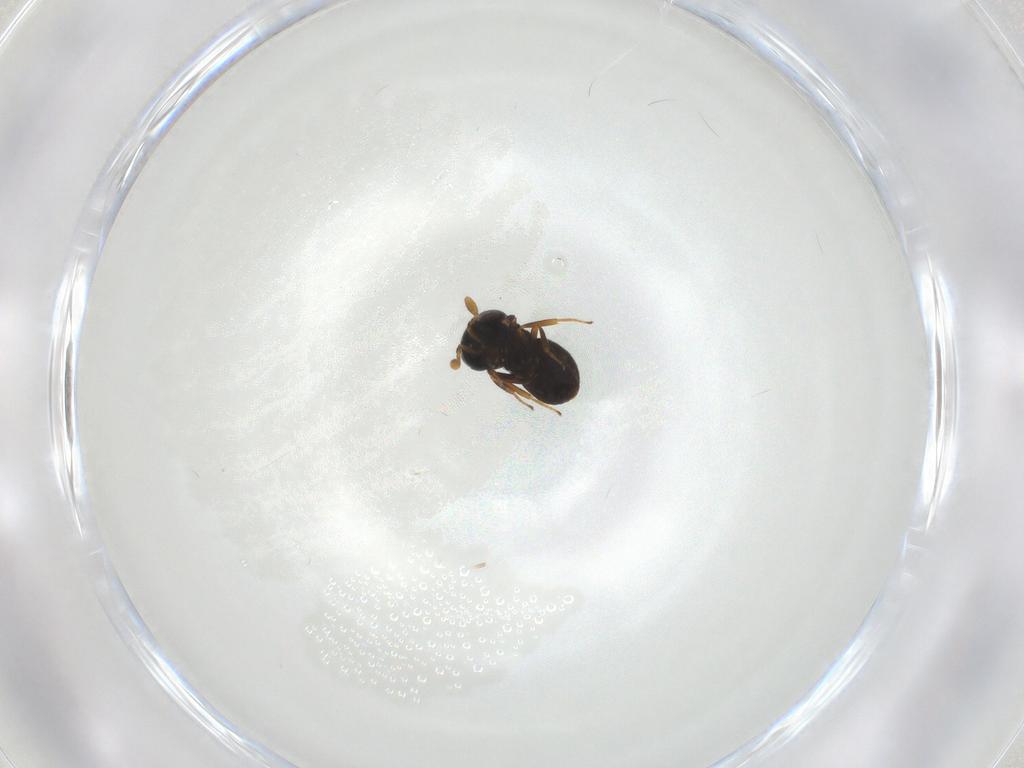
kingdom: Animalia
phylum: Arthropoda
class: Insecta
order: Hymenoptera
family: Scelionidae
